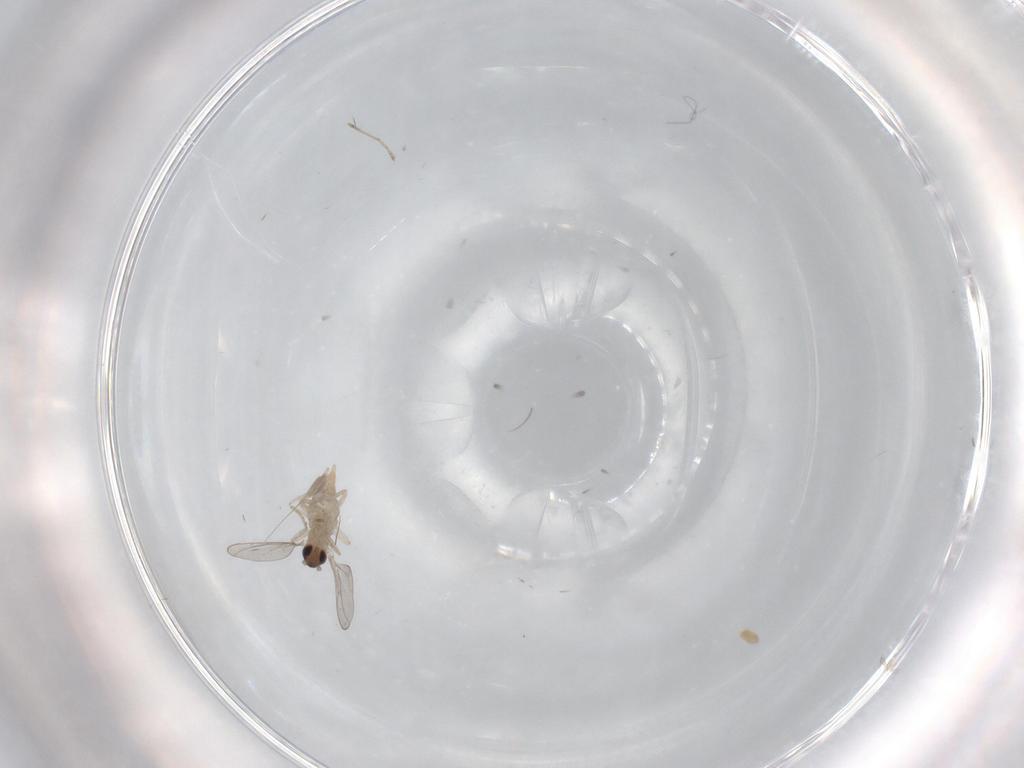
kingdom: Animalia
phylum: Arthropoda
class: Insecta
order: Diptera
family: Cecidomyiidae
